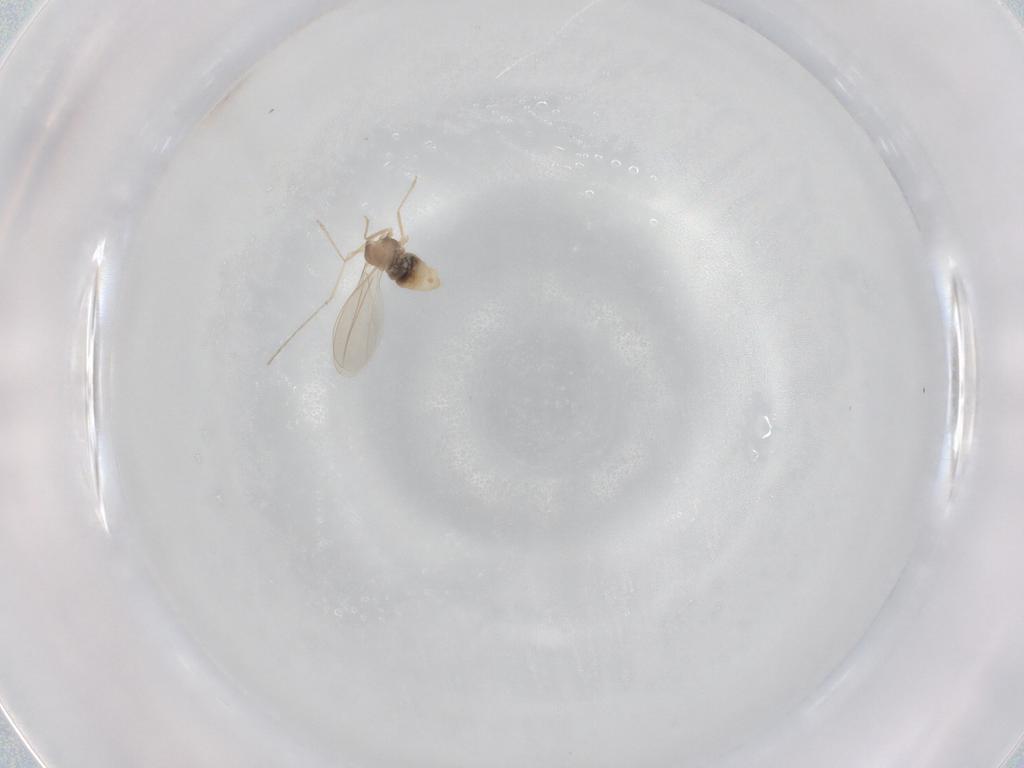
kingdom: Animalia
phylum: Arthropoda
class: Insecta
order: Diptera
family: Cecidomyiidae
